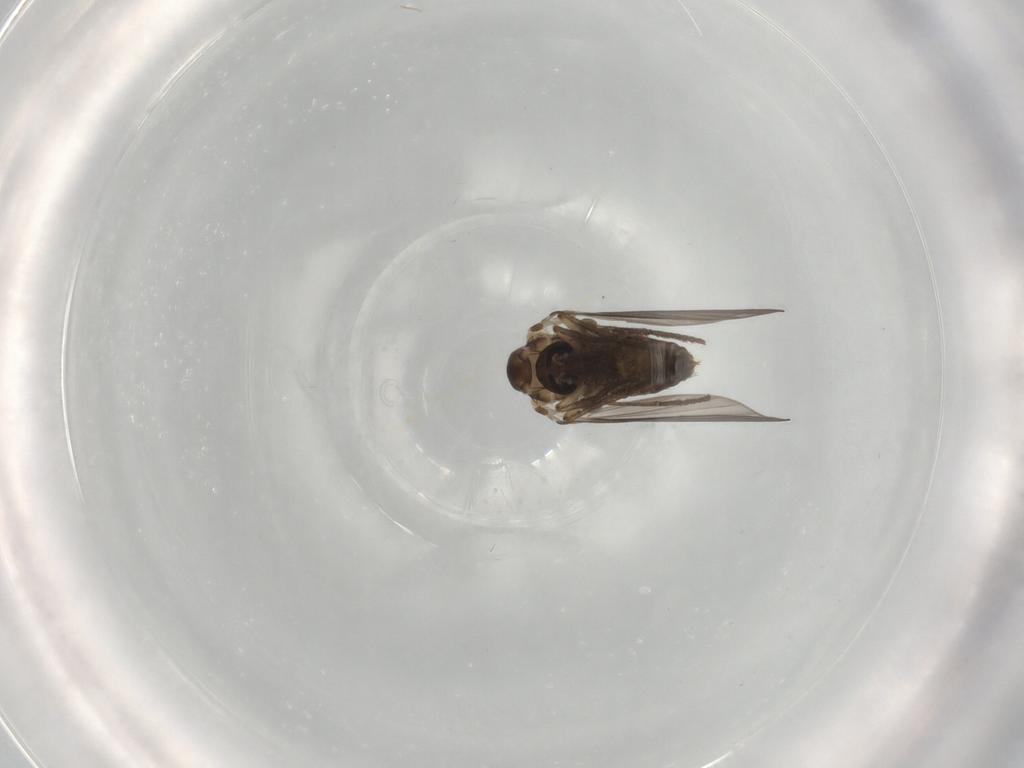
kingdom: Animalia
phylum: Arthropoda
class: Insecta
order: Diptera
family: Psychodidae
